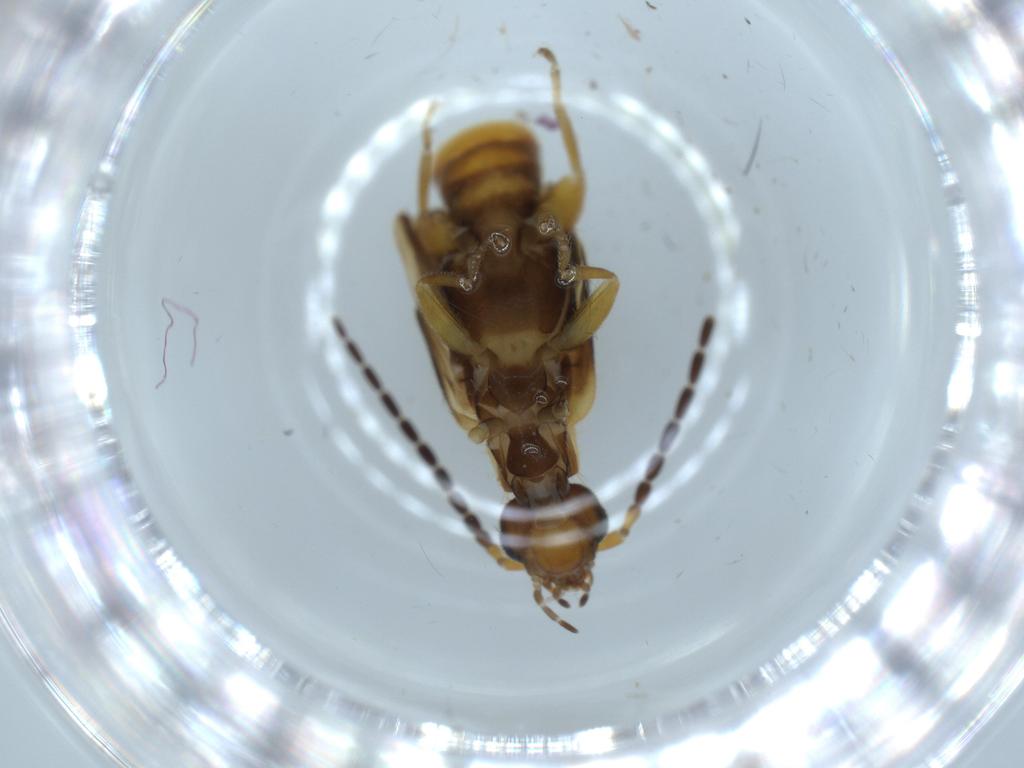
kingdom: Animalia
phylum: Arthropoda
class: Insecta
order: Dermaptera
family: Forficulidae
